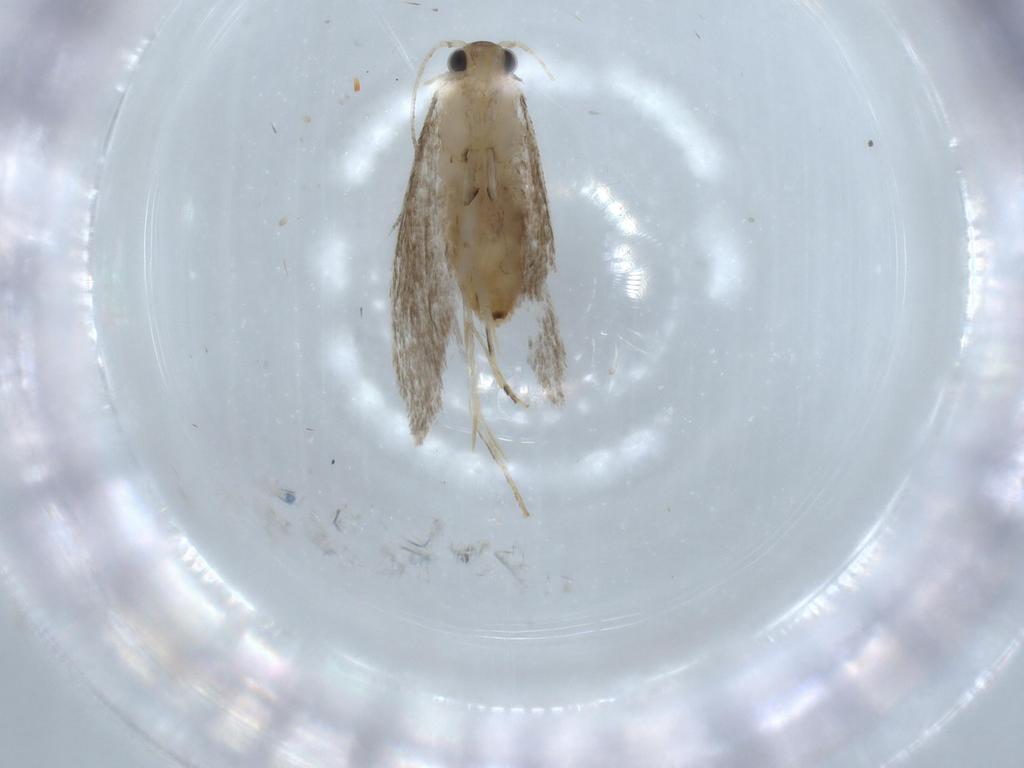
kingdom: Animalia
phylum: Arthropoda
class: Insecta
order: Lepidoptera
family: Tineidae
